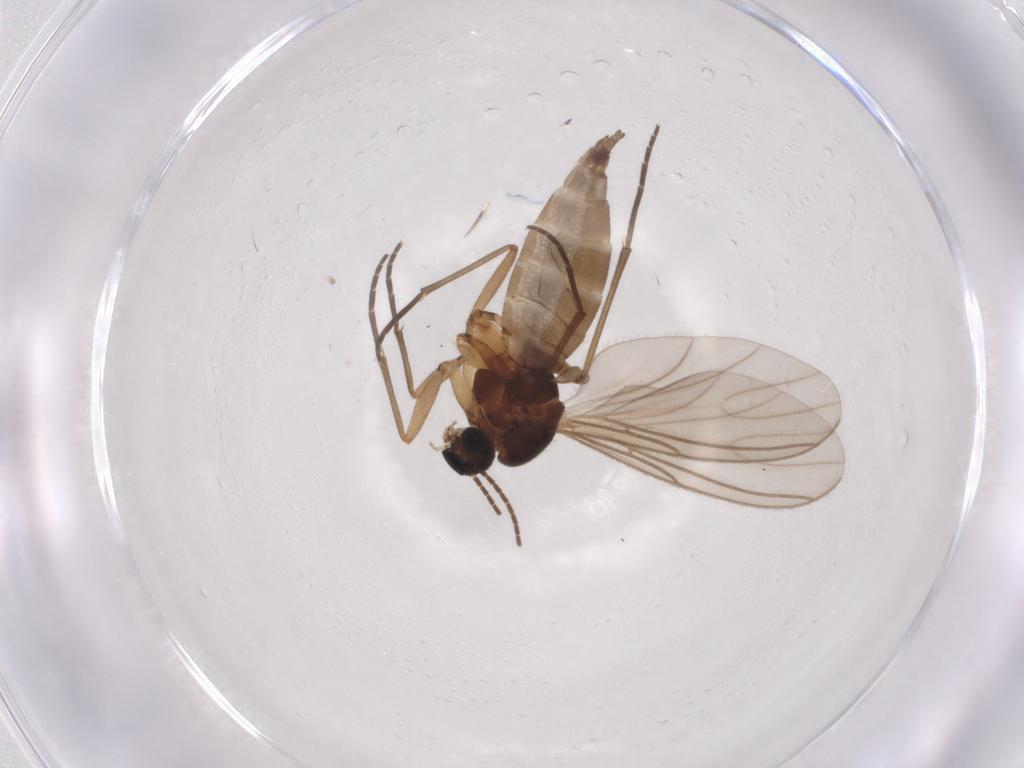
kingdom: Animalia
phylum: Arthropoda
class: Insecta
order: Diptera
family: Sciaridae
